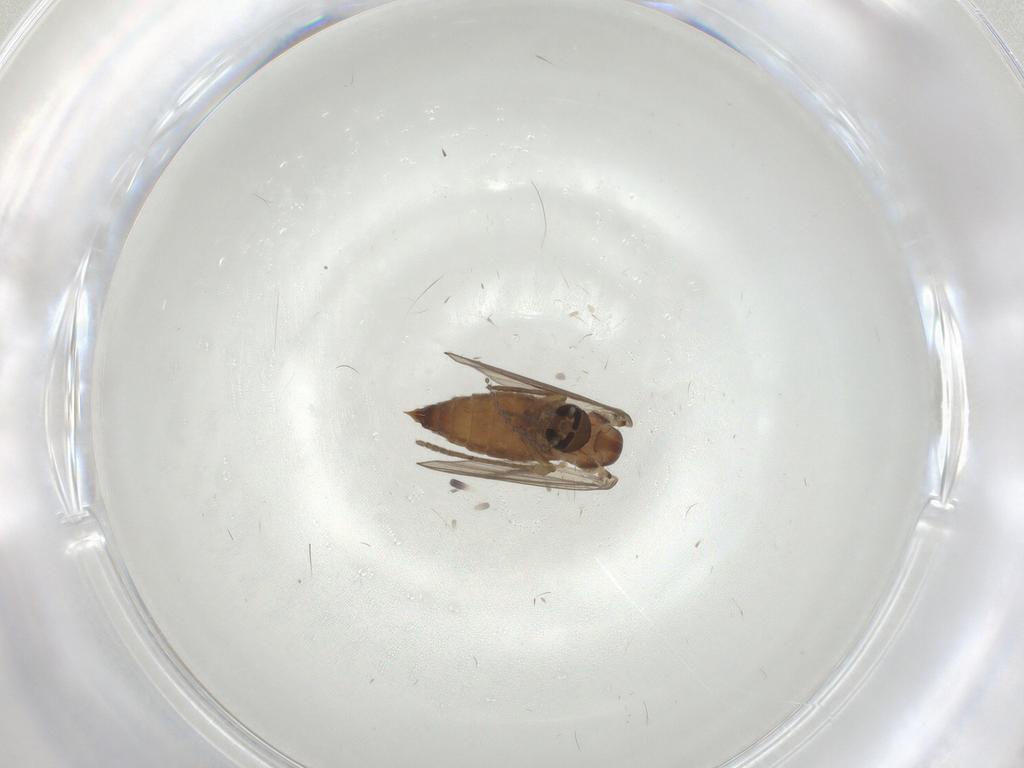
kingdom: Animalia
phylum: Arthropoda
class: Insecta
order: Diptera
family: Psychodidae
